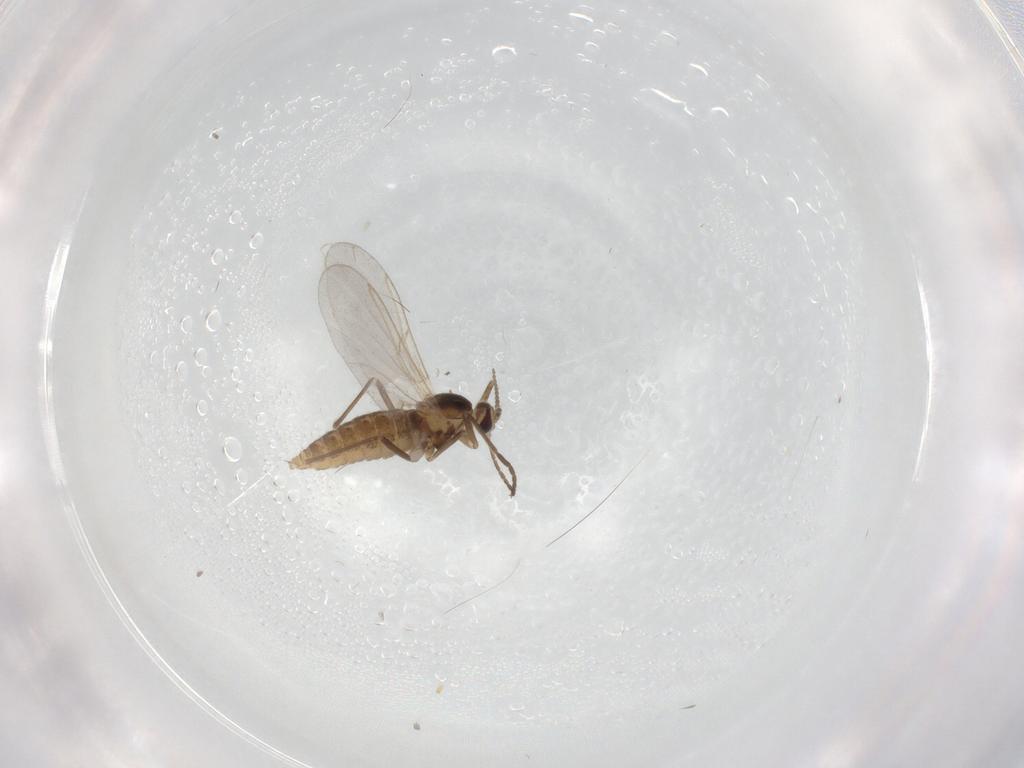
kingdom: Animalia
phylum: Arthropoda
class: Insecta
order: Diptera
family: Cecidomyiidae
